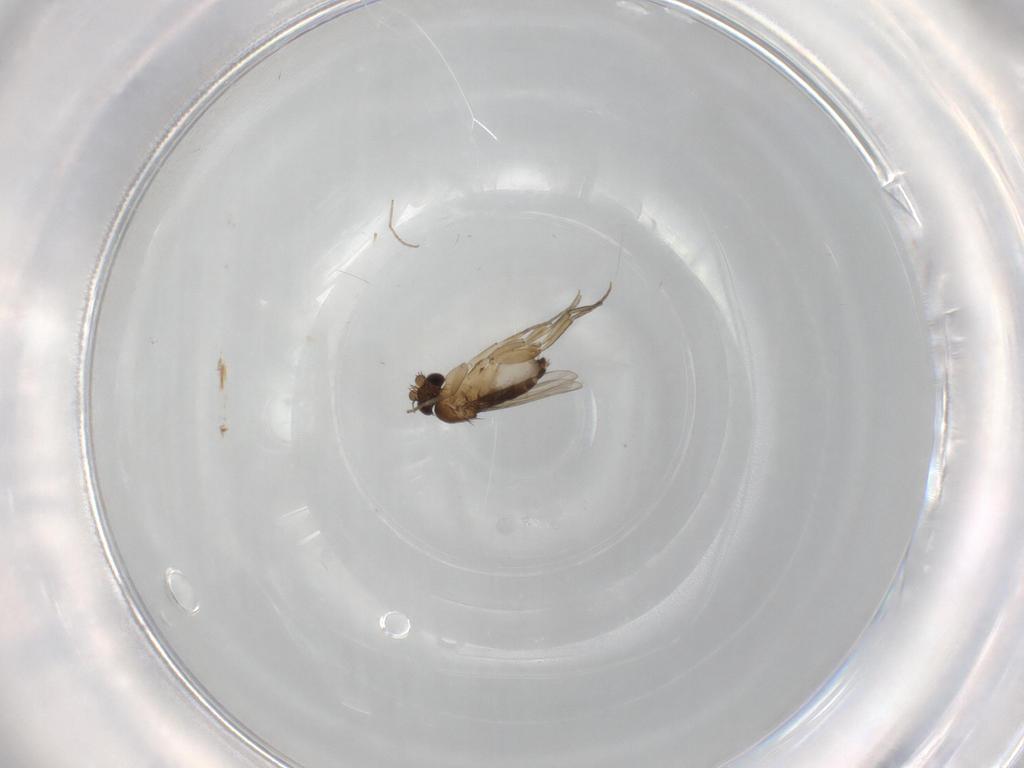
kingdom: Animalia
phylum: Arthropoda
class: Insecta
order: Diptera
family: Phoridae
